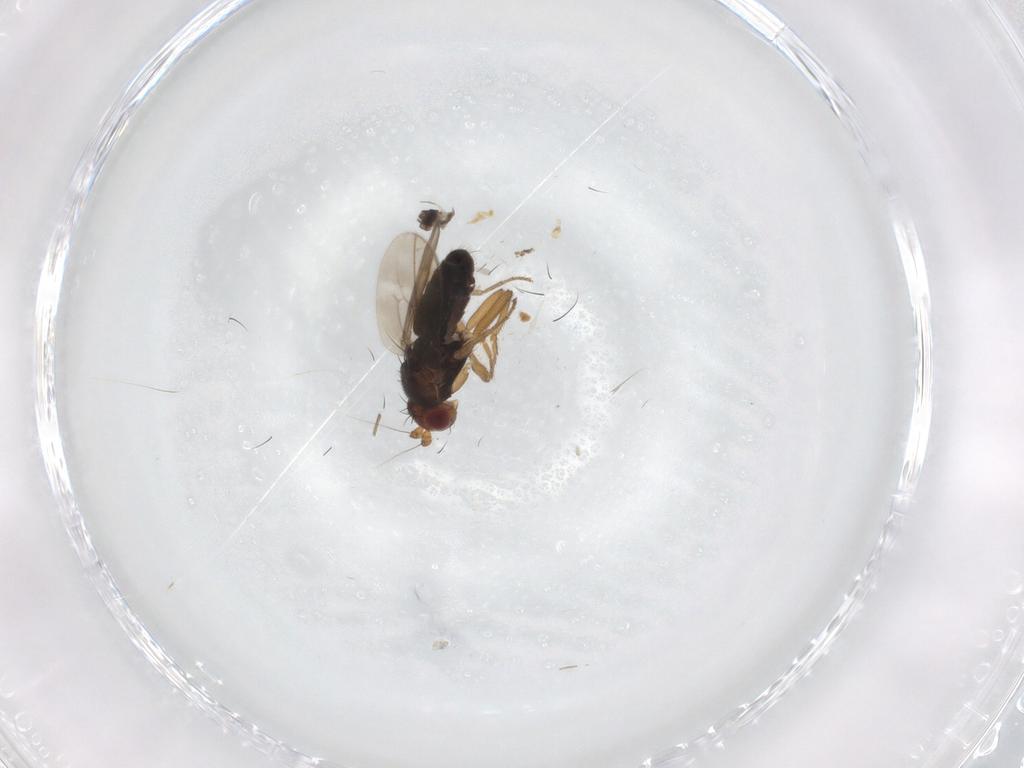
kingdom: Animalia
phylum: Arthropoda
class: Insecta
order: Diptera
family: Sphaeroceridae
